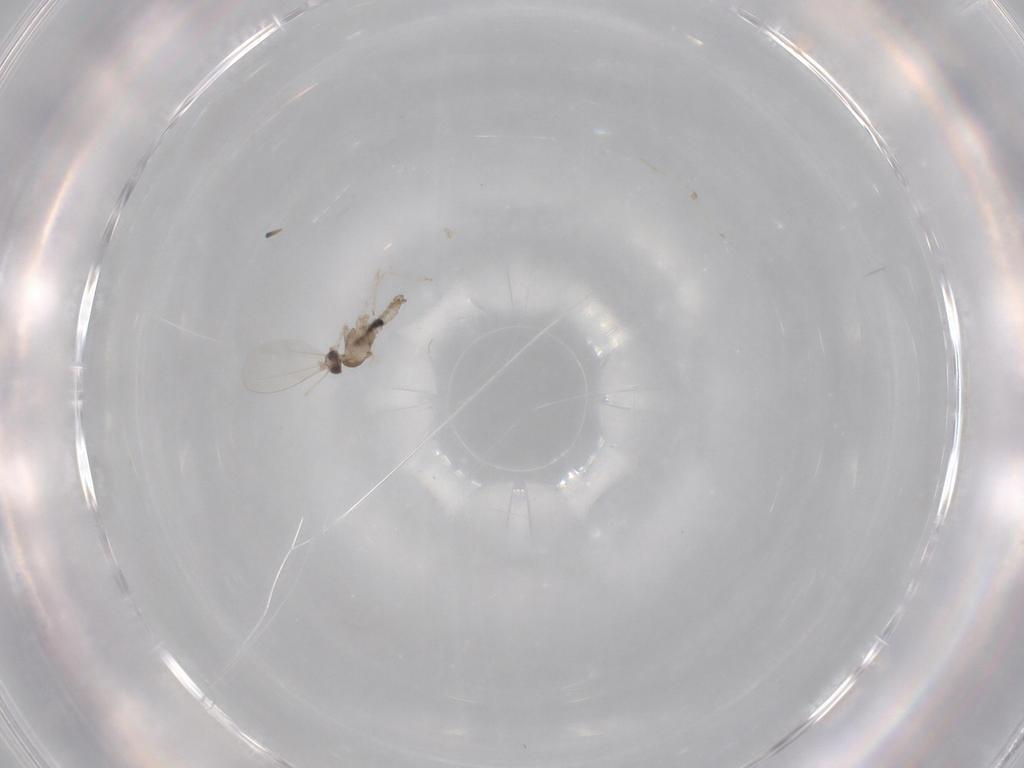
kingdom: Animalia
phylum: Arthropoda
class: Insecta
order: Diptera
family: Cecidomyiidae
